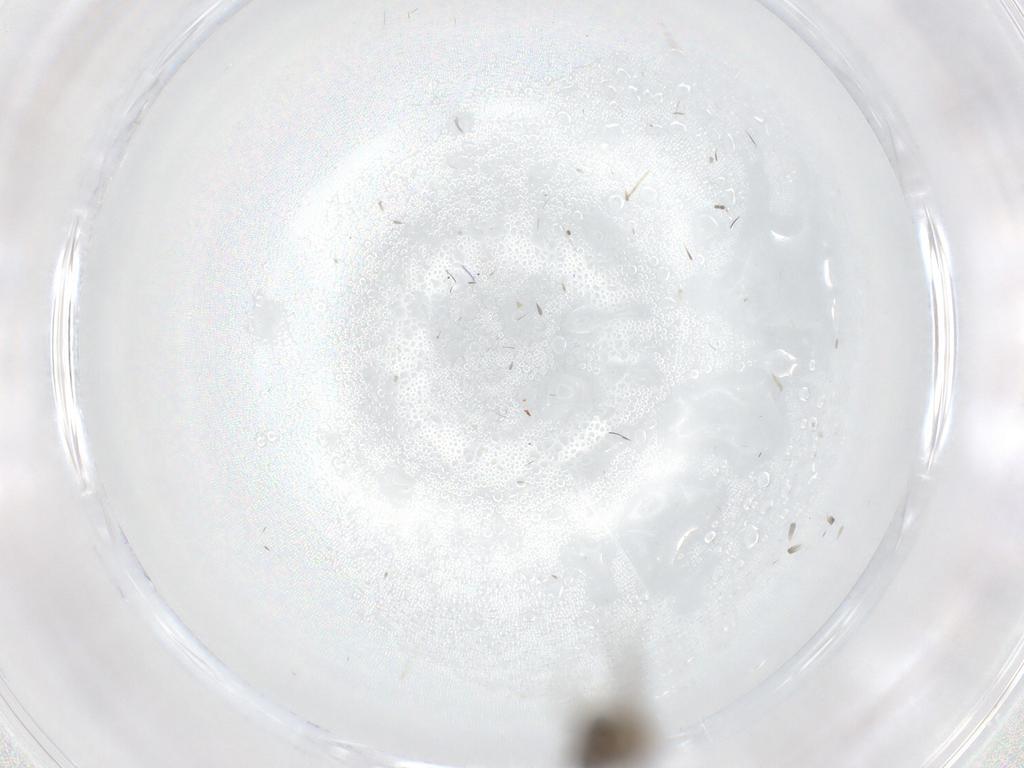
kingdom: Animalia
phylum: Arthropoda
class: Insecta
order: Diptera
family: Anthomyiidae
